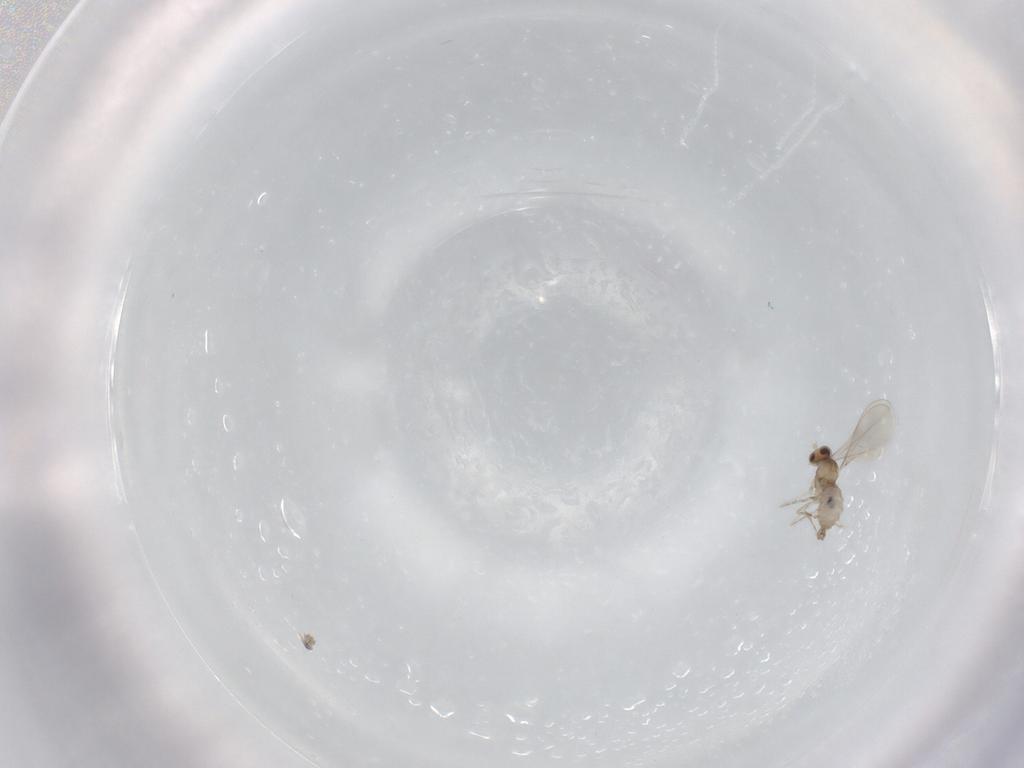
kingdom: Animalia
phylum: Arthropoda
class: Insecta
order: Diptera
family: Cecidomyiidae
